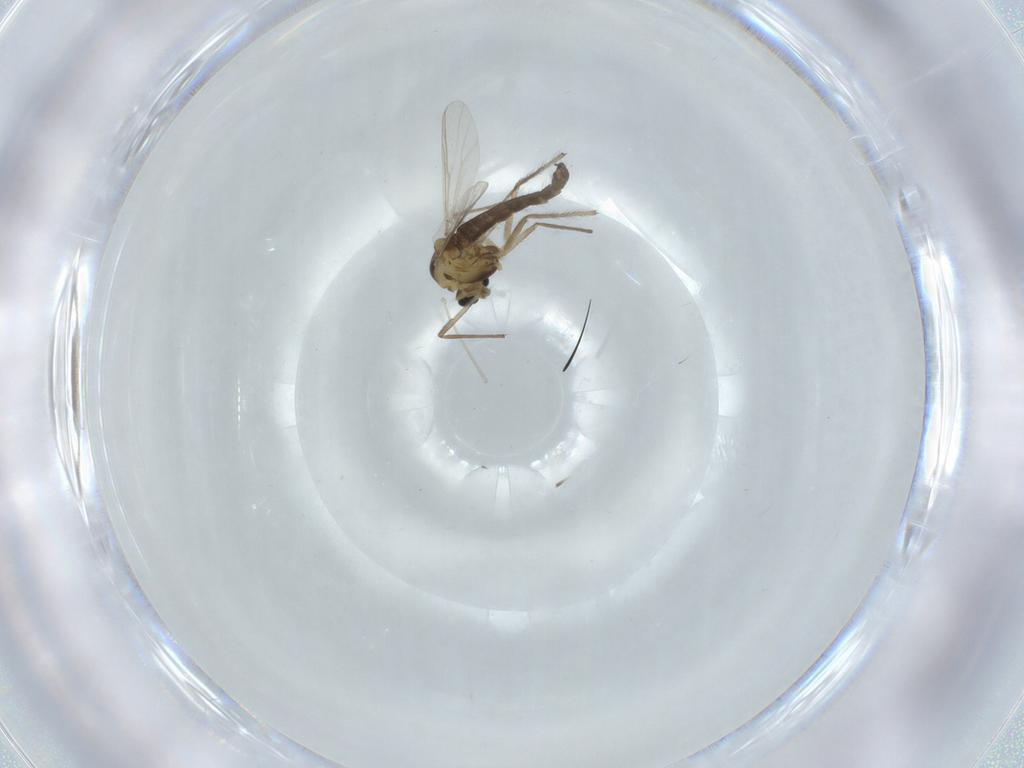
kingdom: Animalia
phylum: Arthropoda
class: Insecta
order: Diptera
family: Chironomidae
